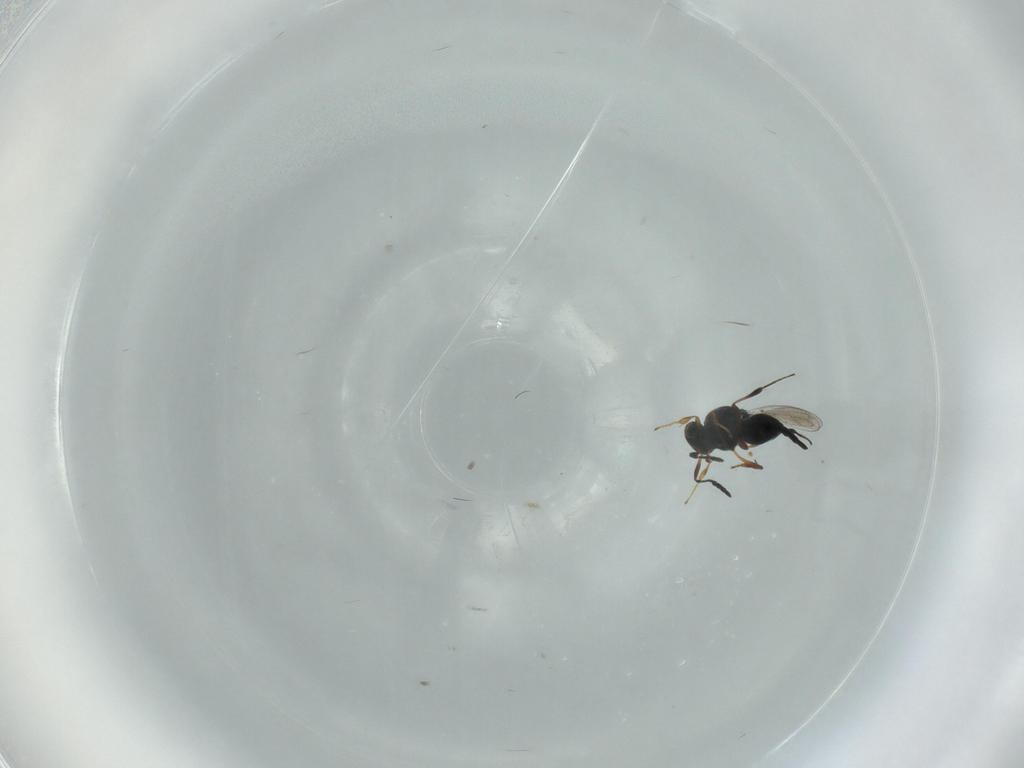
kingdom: Animalia
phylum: Arthropoda
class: Insecta
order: Hymenoptera
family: Platygastridae
